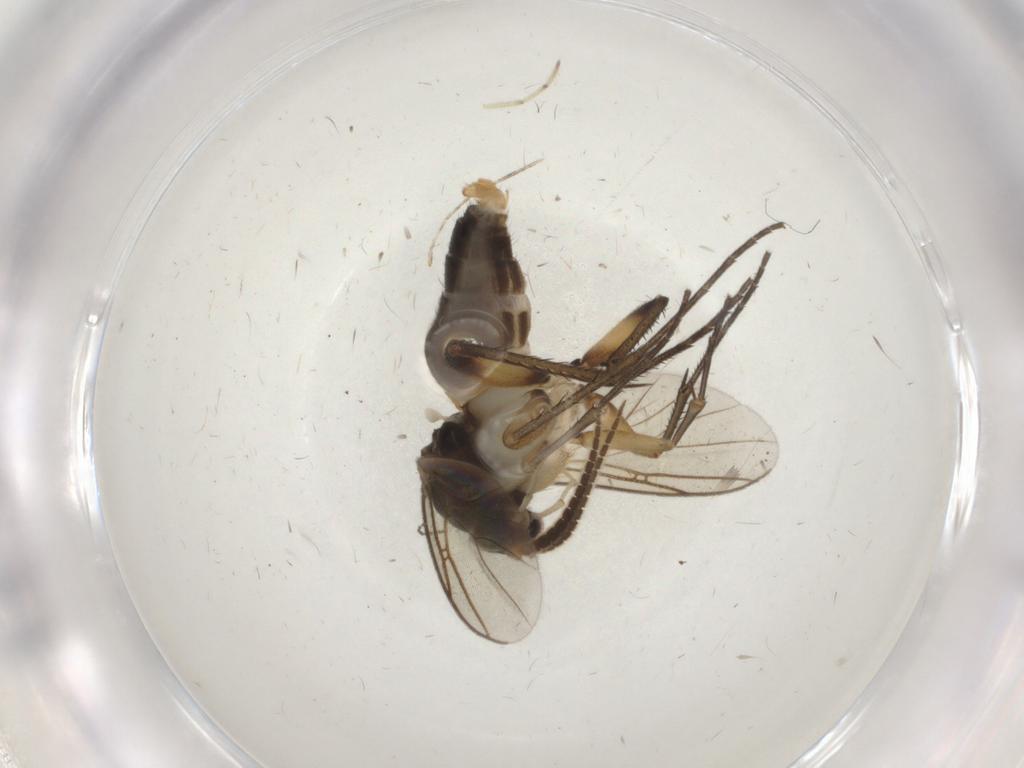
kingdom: Animalia
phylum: Arthropoda
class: Insecta
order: Diptera
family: Mycetophilidae
